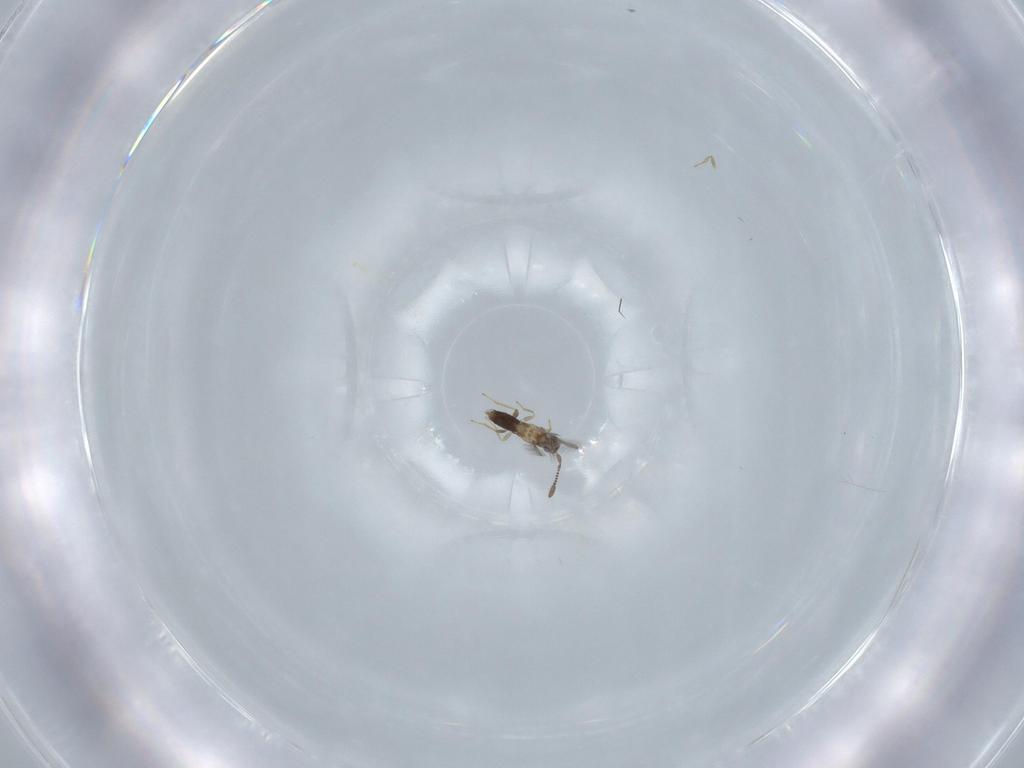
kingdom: Animalia
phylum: Arthropoda
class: Insecta
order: Hymenoptera
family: Mymaridae
